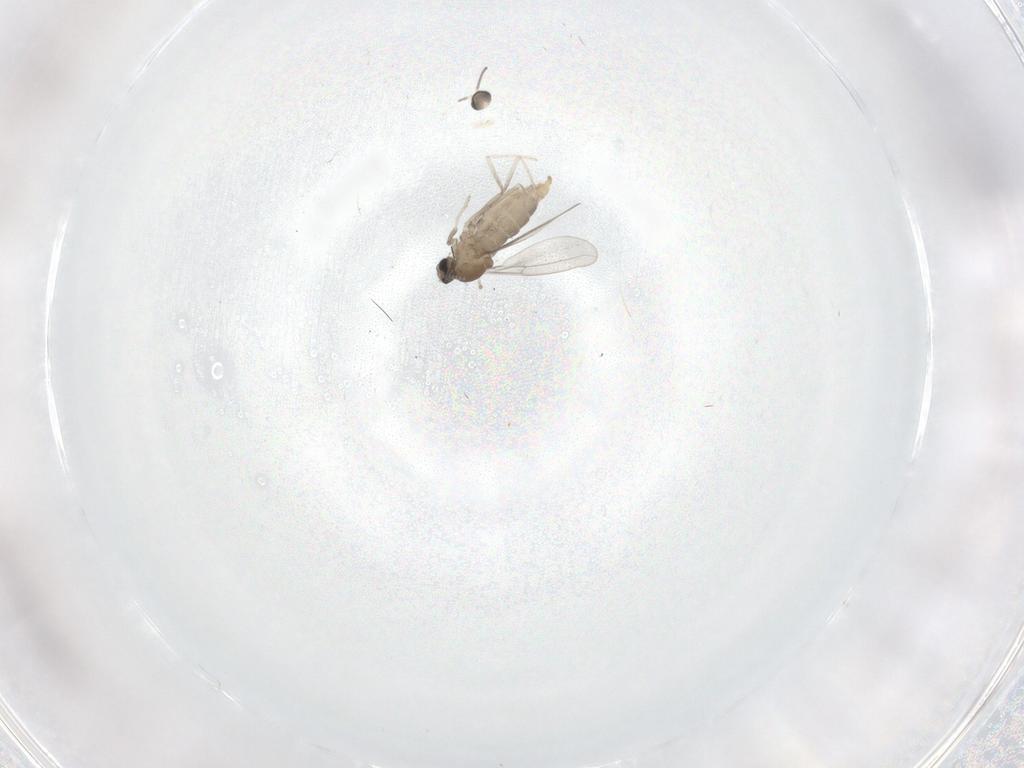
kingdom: Animalia
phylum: Arthropoda
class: Insecta
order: Diptera
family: Cecidomyiidae
